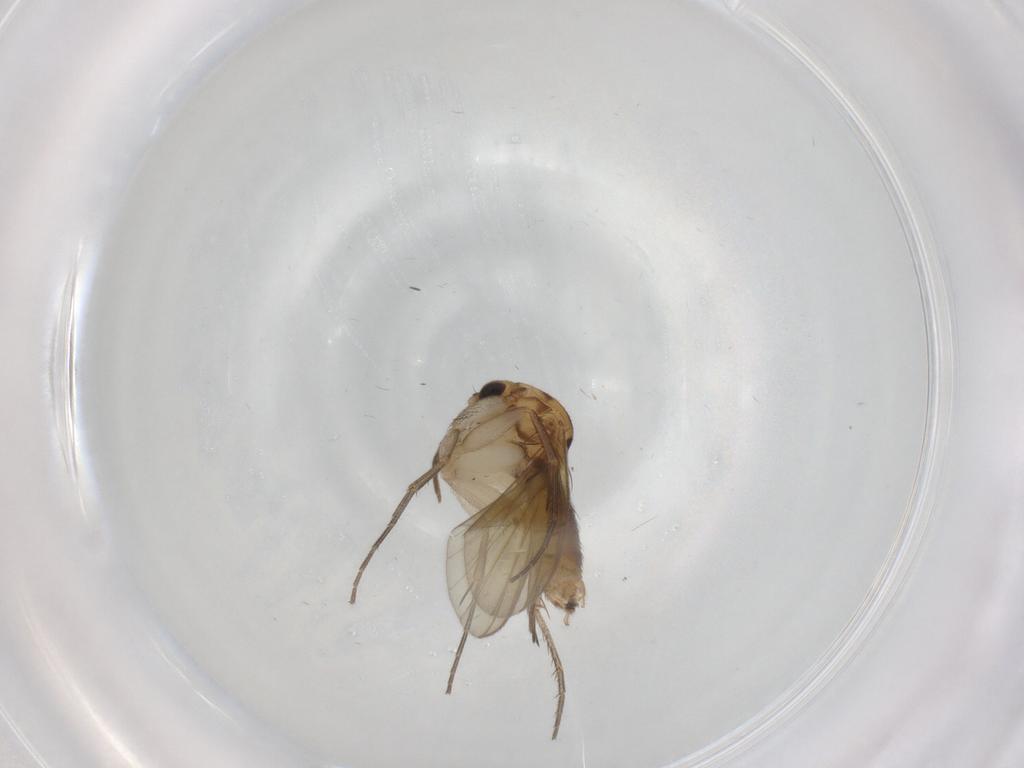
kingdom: Animalia
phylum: Arthropoda
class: Insecta
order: Diptera
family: Mycetophilidae
